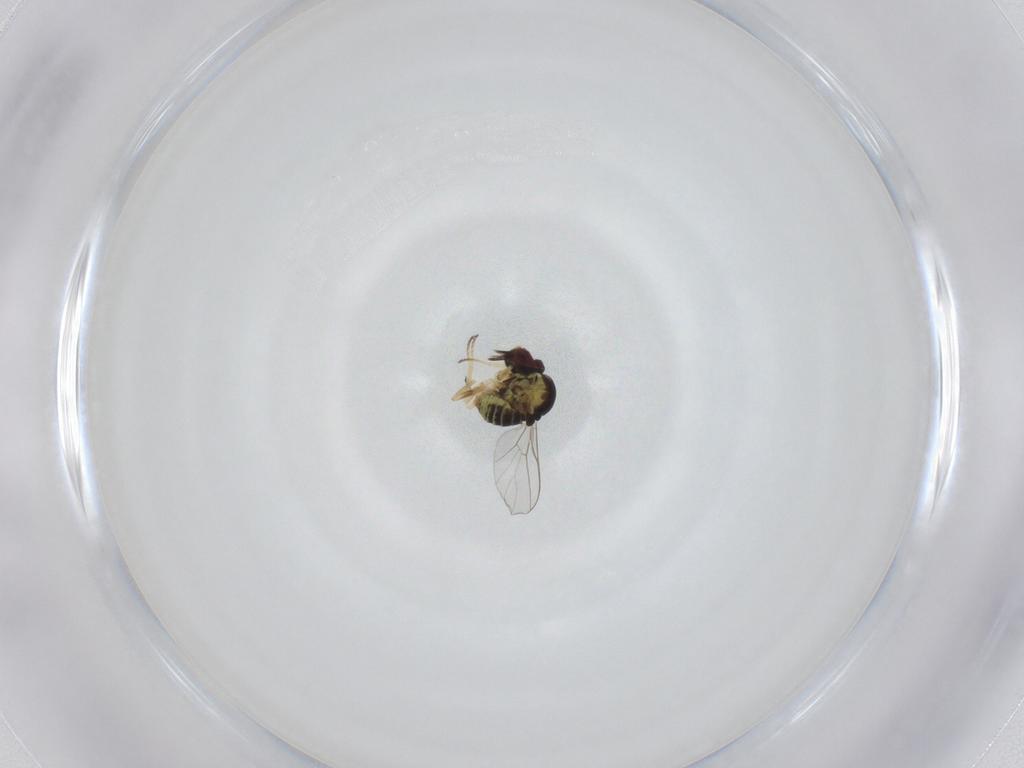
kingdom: Animalia
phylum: Arthropoda
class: Insecta
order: Diptera
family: Mythicomyiidae
